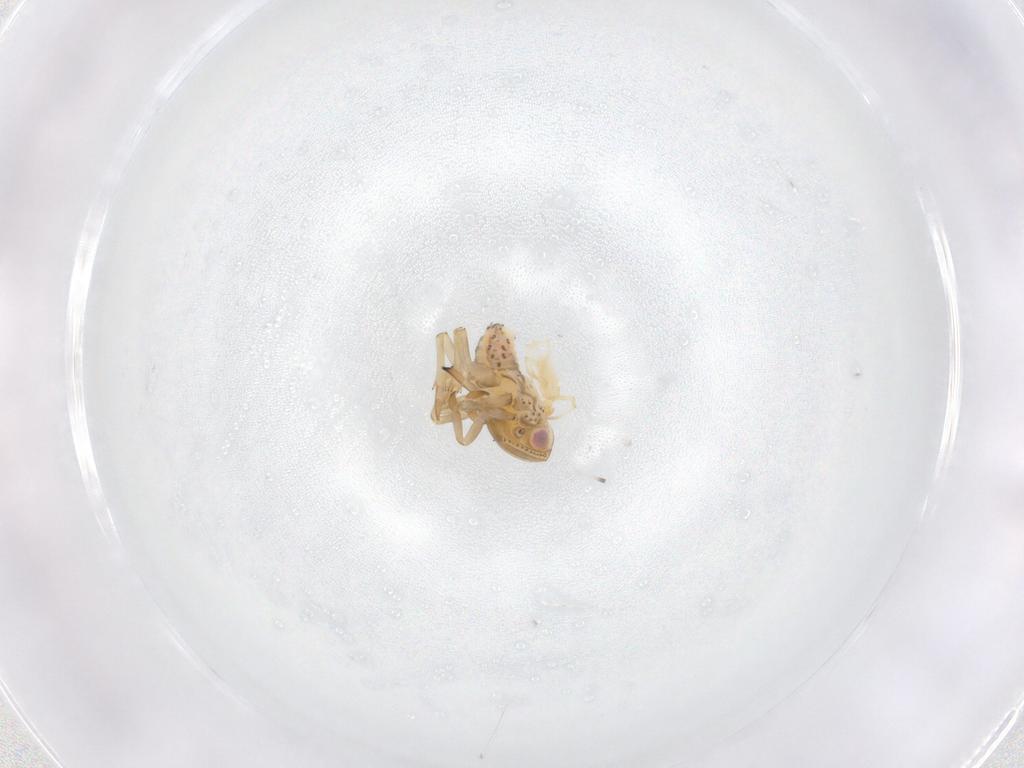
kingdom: Animalia
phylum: Arthropoda
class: Arachnida
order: Trombidiformes
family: Erythraeidae
